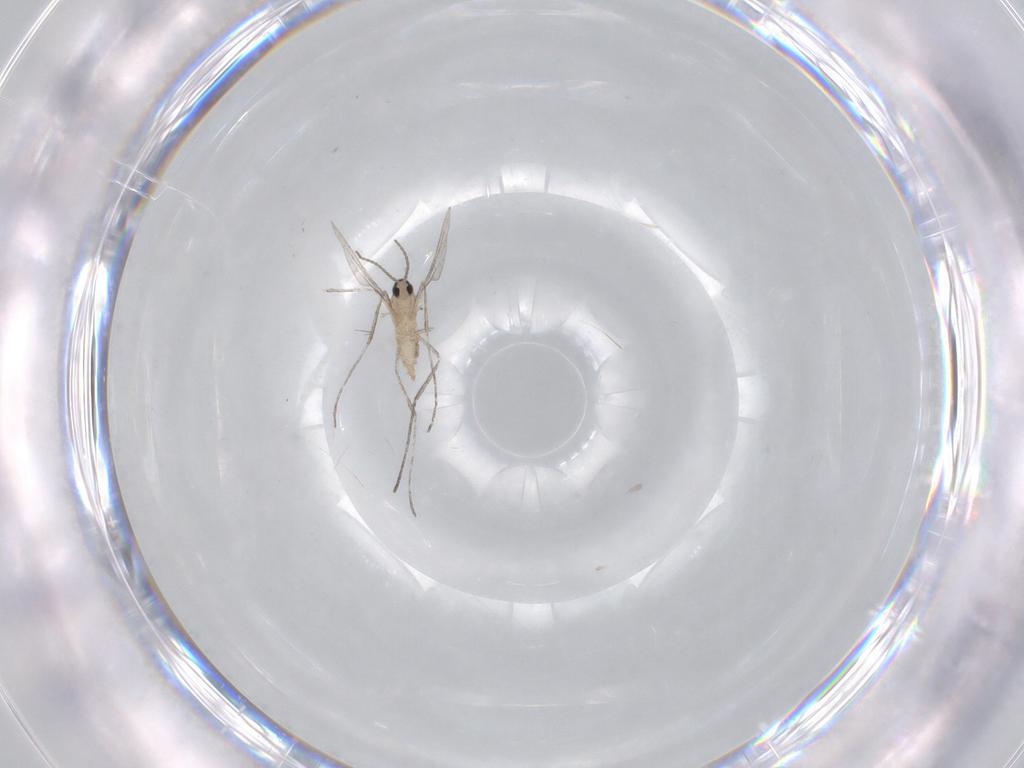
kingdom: Animalia
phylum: Arthropoda
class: Insecta
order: Diptera
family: Cecidomyiidae
